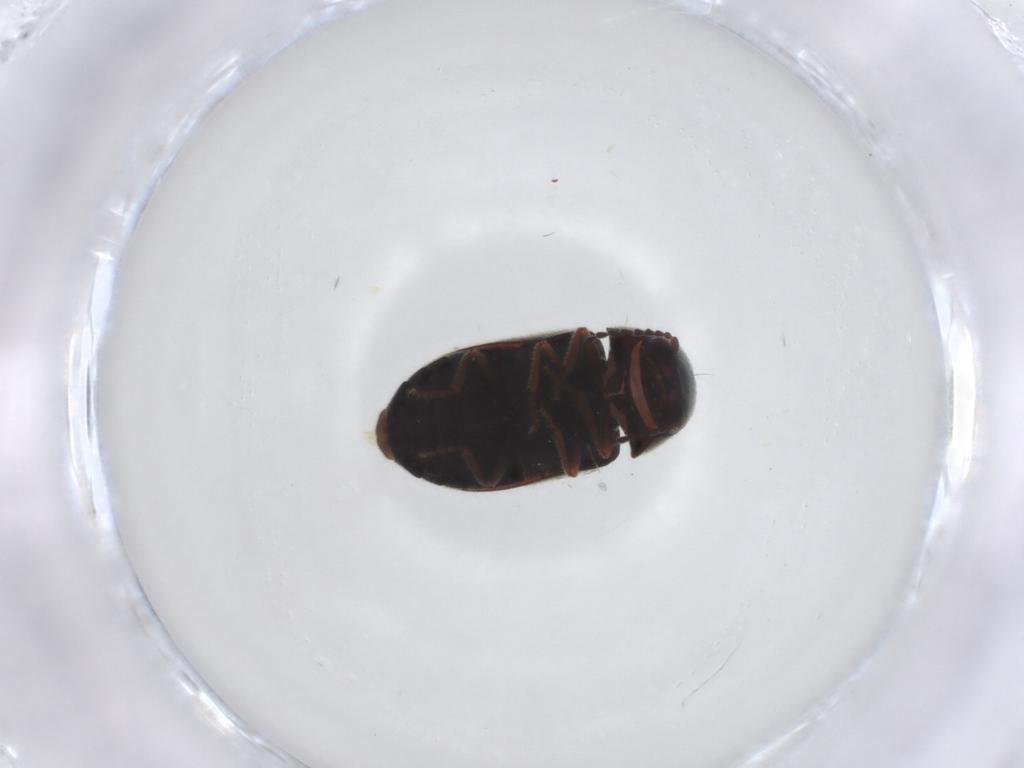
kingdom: Animalia
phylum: Arthropoda
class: Insecta
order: Coleoptera
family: Ptinidae
